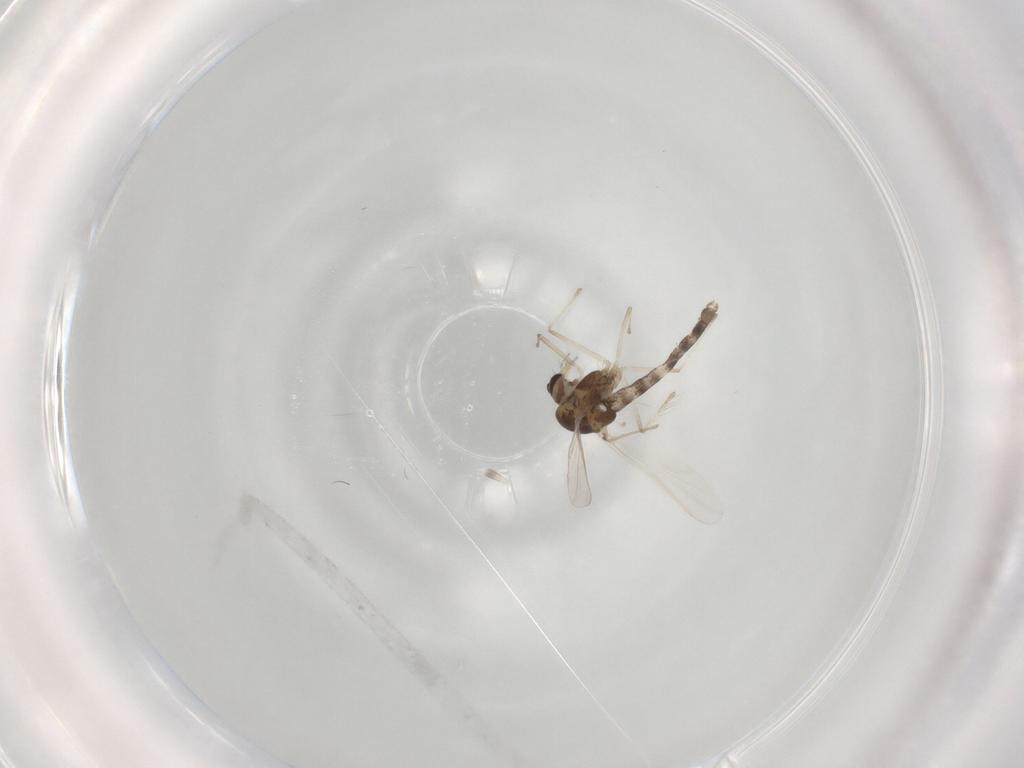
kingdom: Animalia
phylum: Arthropoda
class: Insecta
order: Diptera
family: Chironomidae
